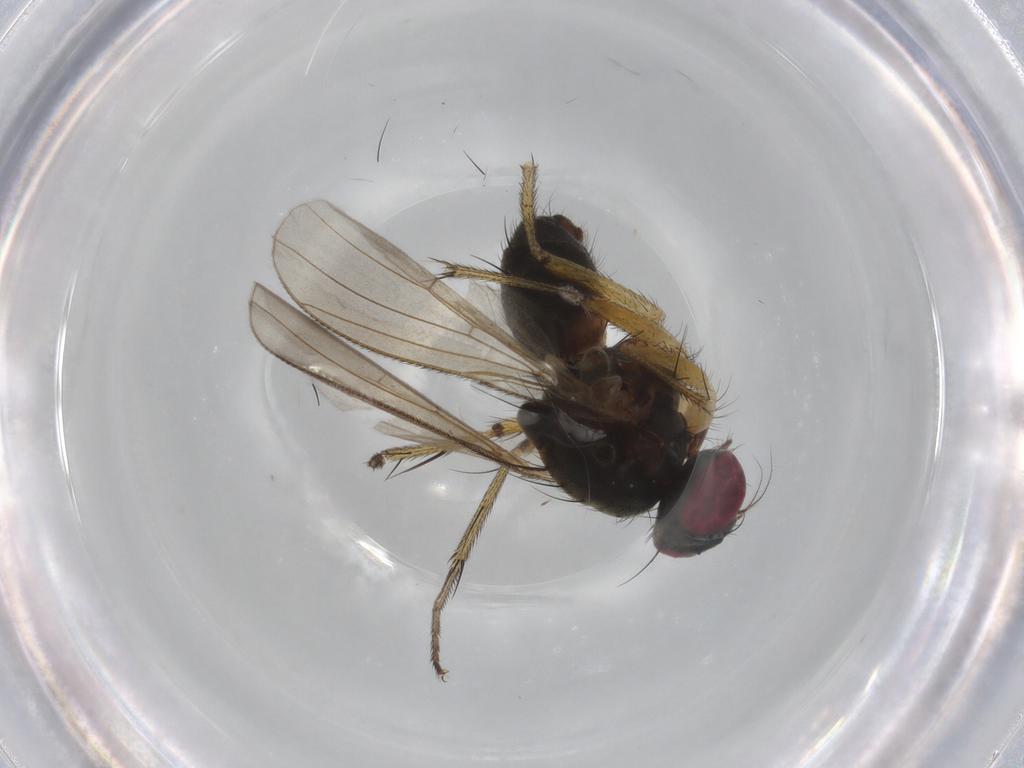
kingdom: Animalia
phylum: Arthropoda
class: Insecta
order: Diptera
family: Muscidae
